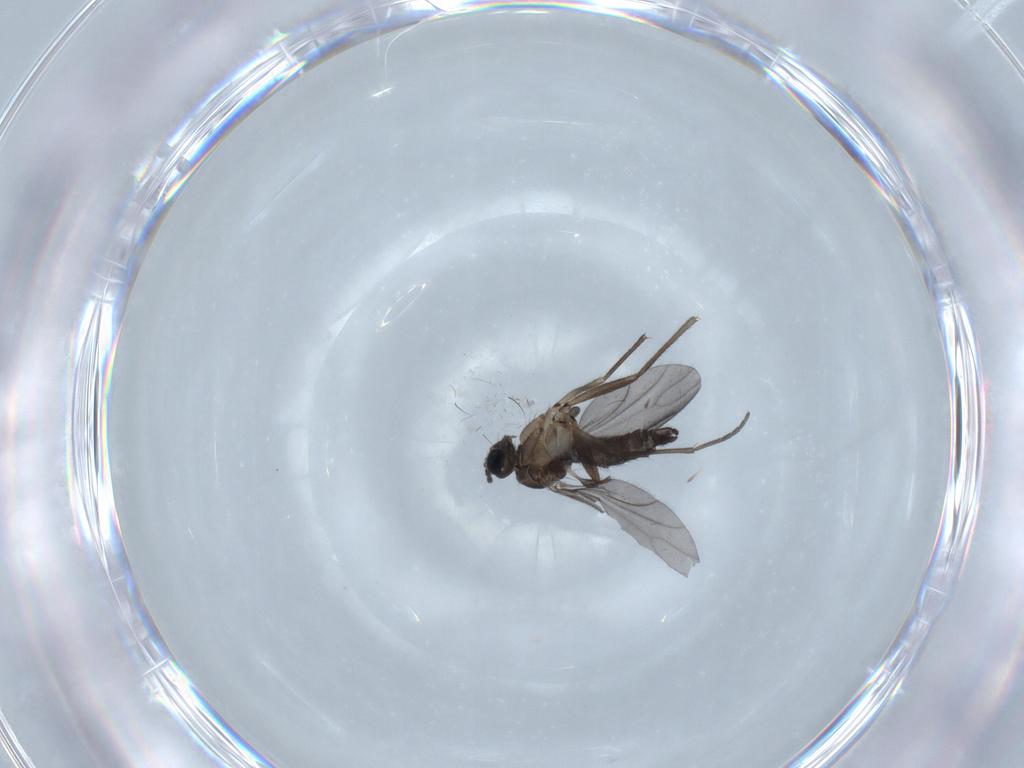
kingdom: Animalia
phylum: Arthropoda
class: Insecta
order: Diptera
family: Sciaridae
